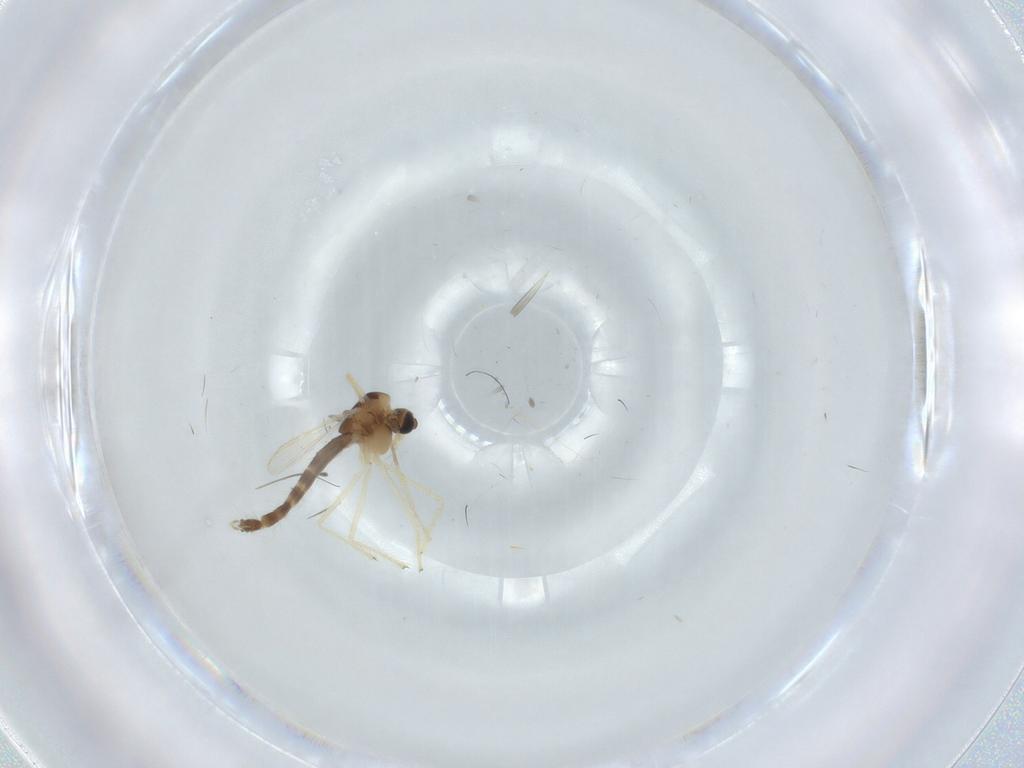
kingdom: Animalia
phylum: Arthropoda
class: Insecta
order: Diptera
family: Chironomidae
